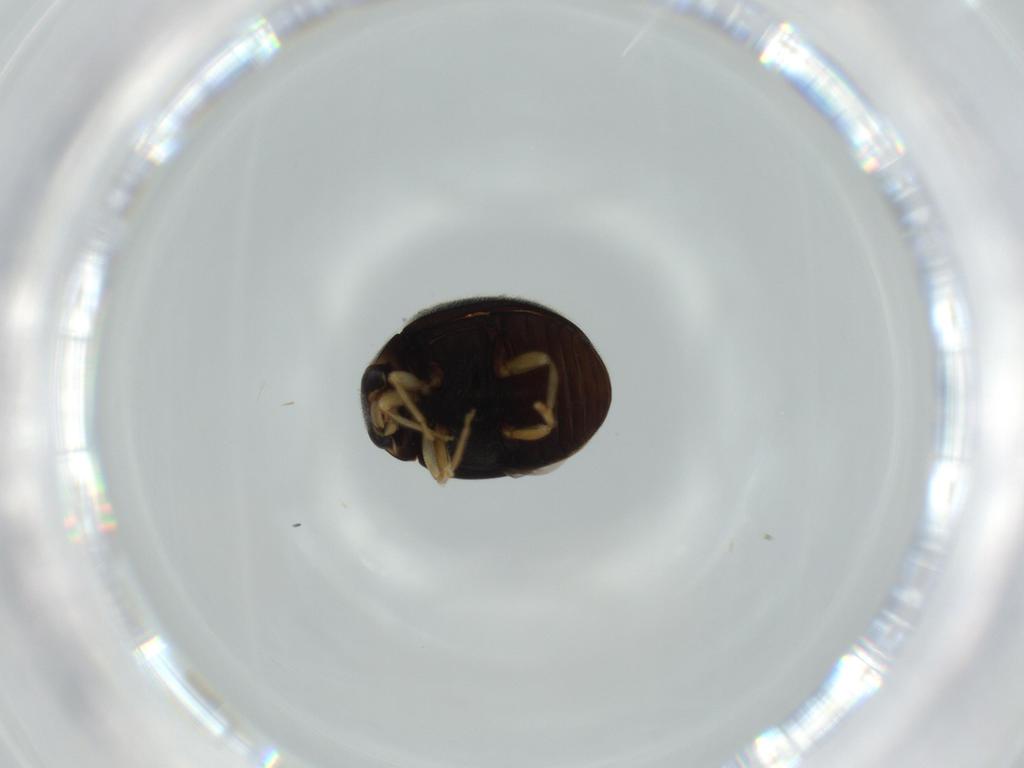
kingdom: Animalia
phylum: Arthropoda
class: Insecta
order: Coleoptera
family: Coccinellidae
